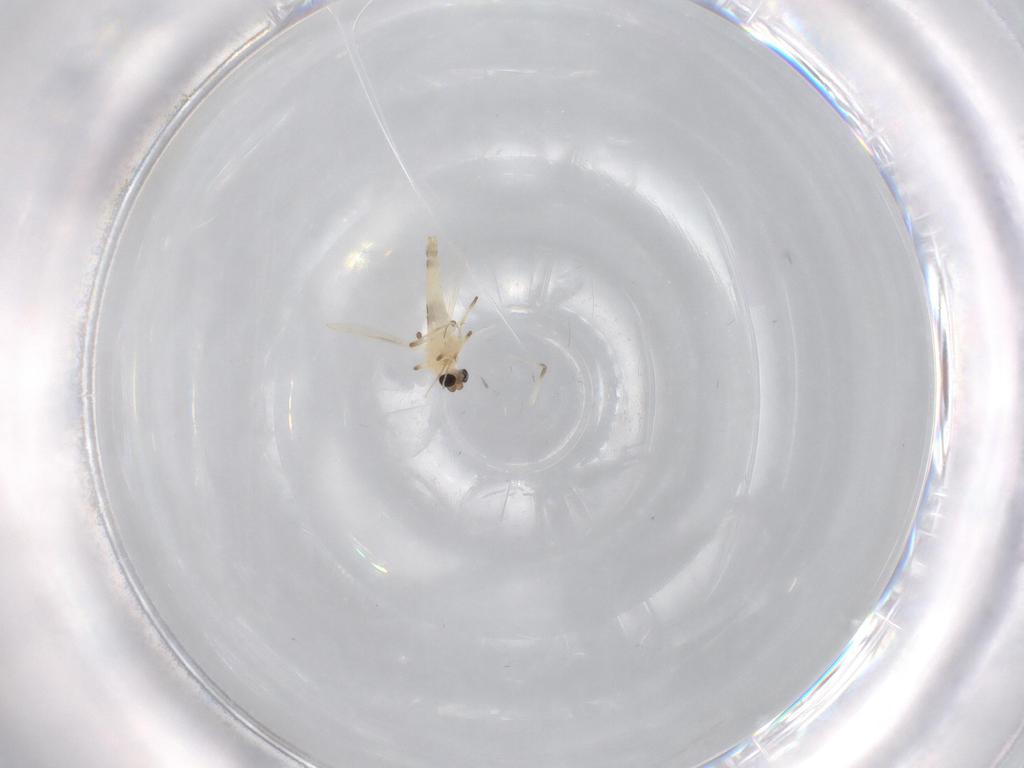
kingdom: Animalia
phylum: Arthropoda
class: Insecta
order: Diptera
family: Chironomidae
